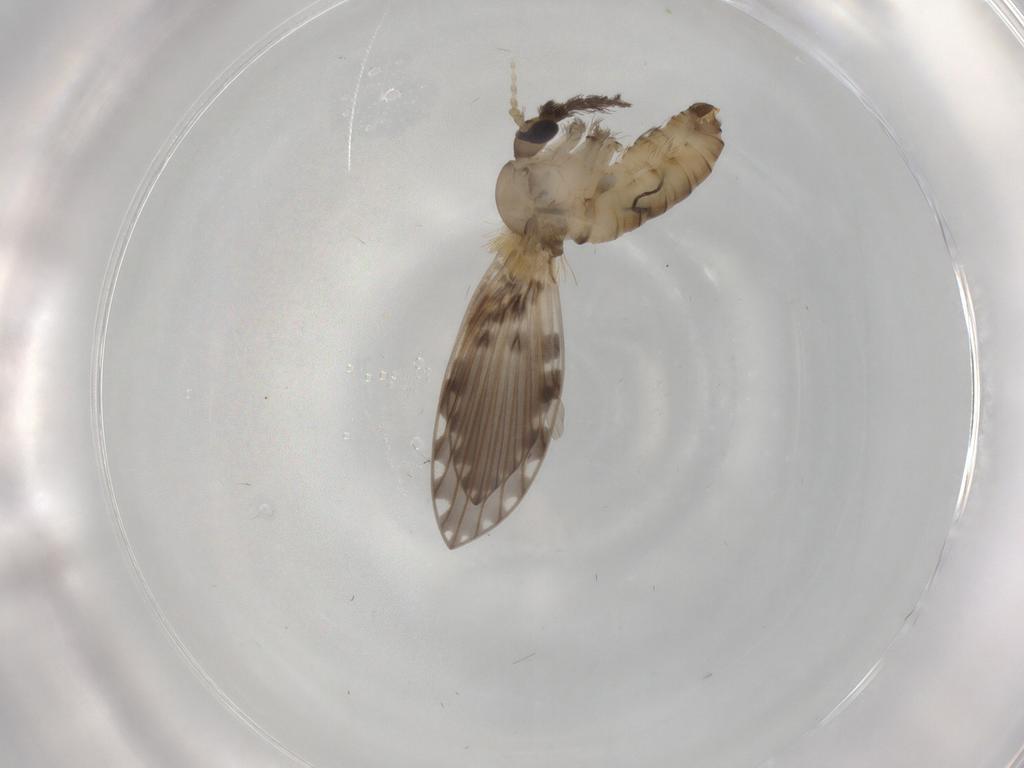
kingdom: Animalia
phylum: Arthropoda
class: Insecta
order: Diptera
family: Psychodidae
